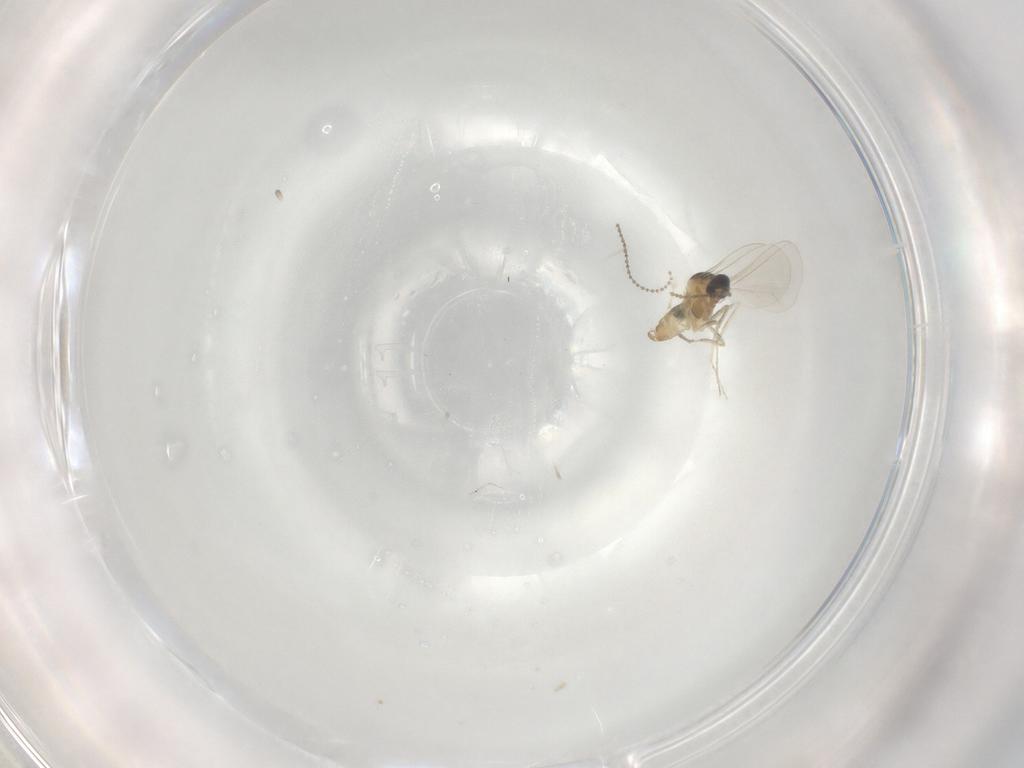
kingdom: Animalia
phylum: Arthropoda
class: Insecta
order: Diptera
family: Cecidomyiidae
